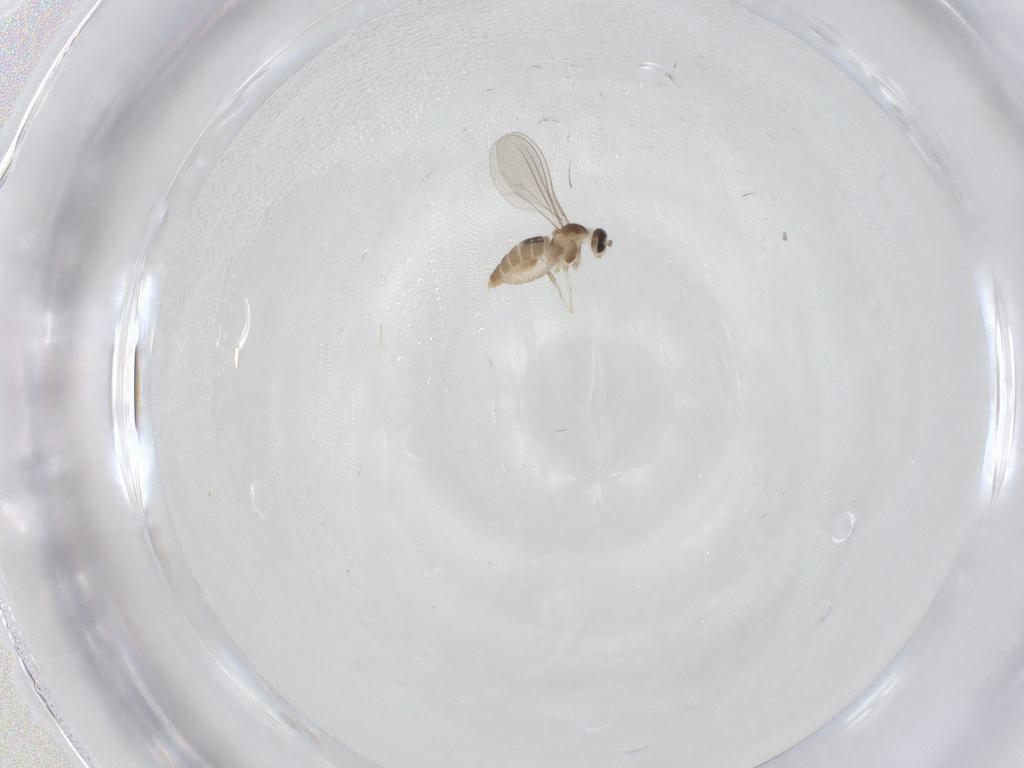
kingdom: Animalia
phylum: Arthropoda
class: Insecta
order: Diptera
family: Cecidomyiidae
